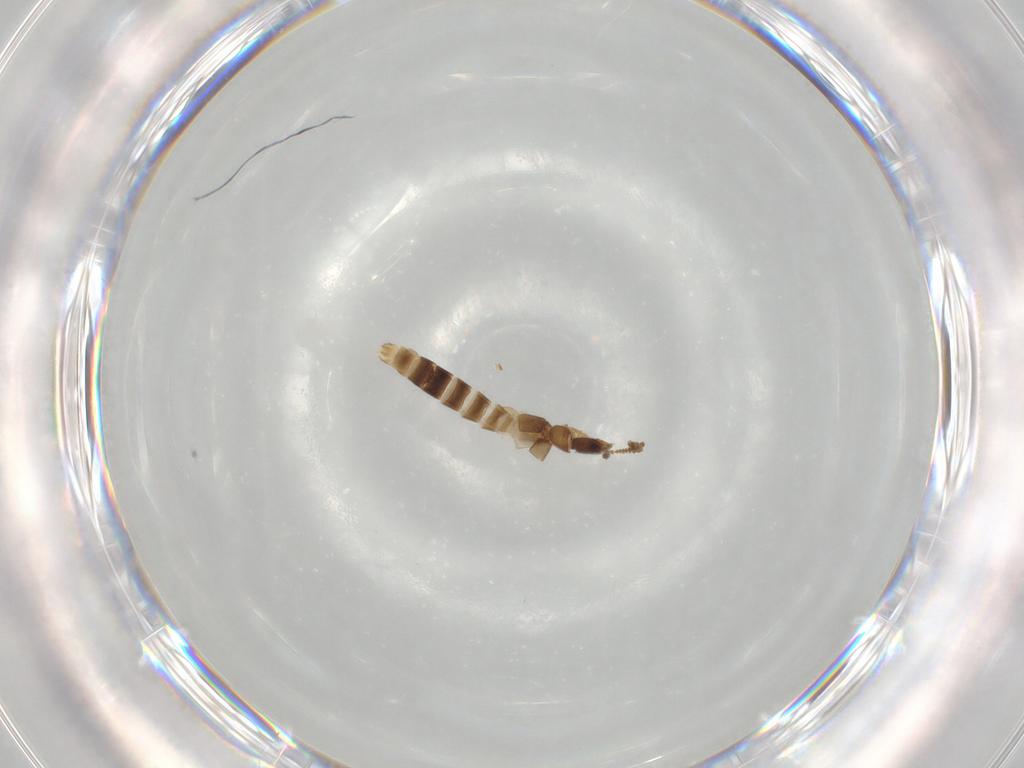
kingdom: Animalia
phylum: Arthropoda
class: Insecta
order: Coleoptera
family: Staphylinidae
